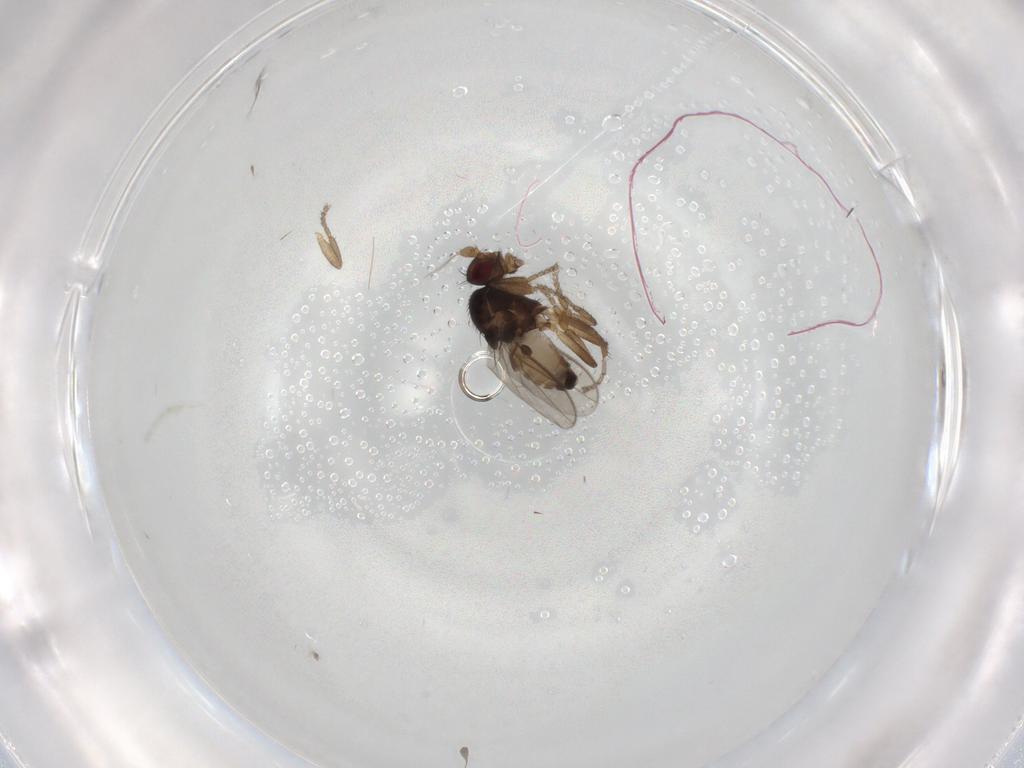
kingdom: Animalia
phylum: Arthropoda
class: Insecta
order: Diptera
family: Sphaeroceridae
